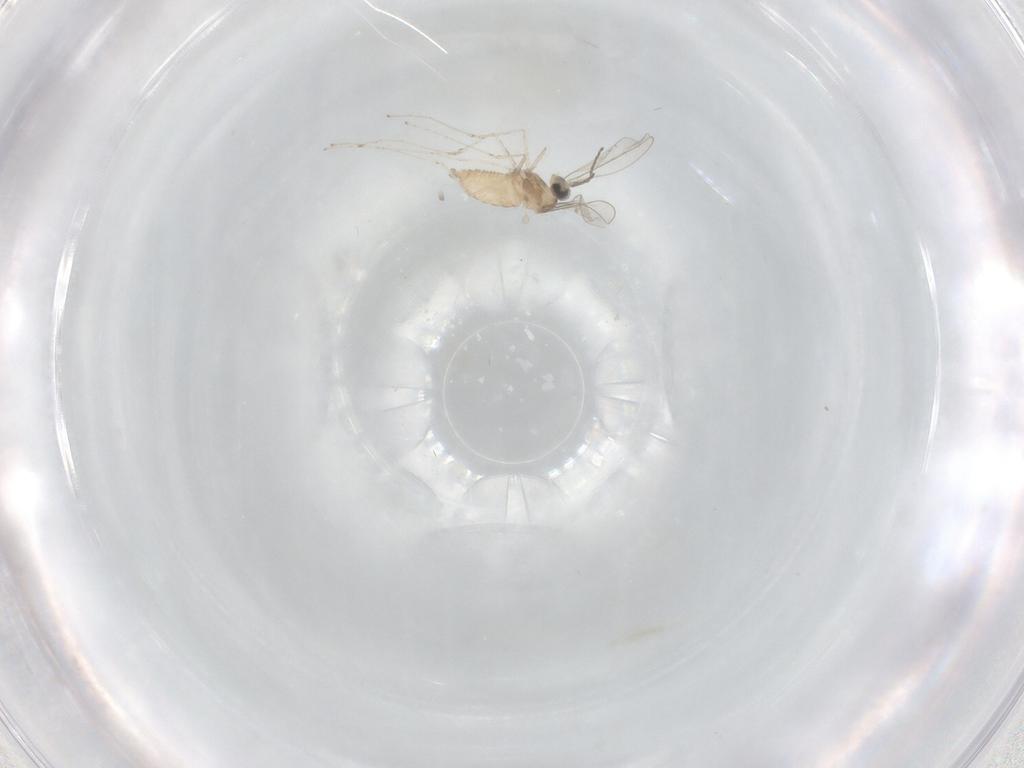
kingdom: Animalia
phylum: Arthropoda
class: Insecta
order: Diptera
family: Cecidomyiidae
